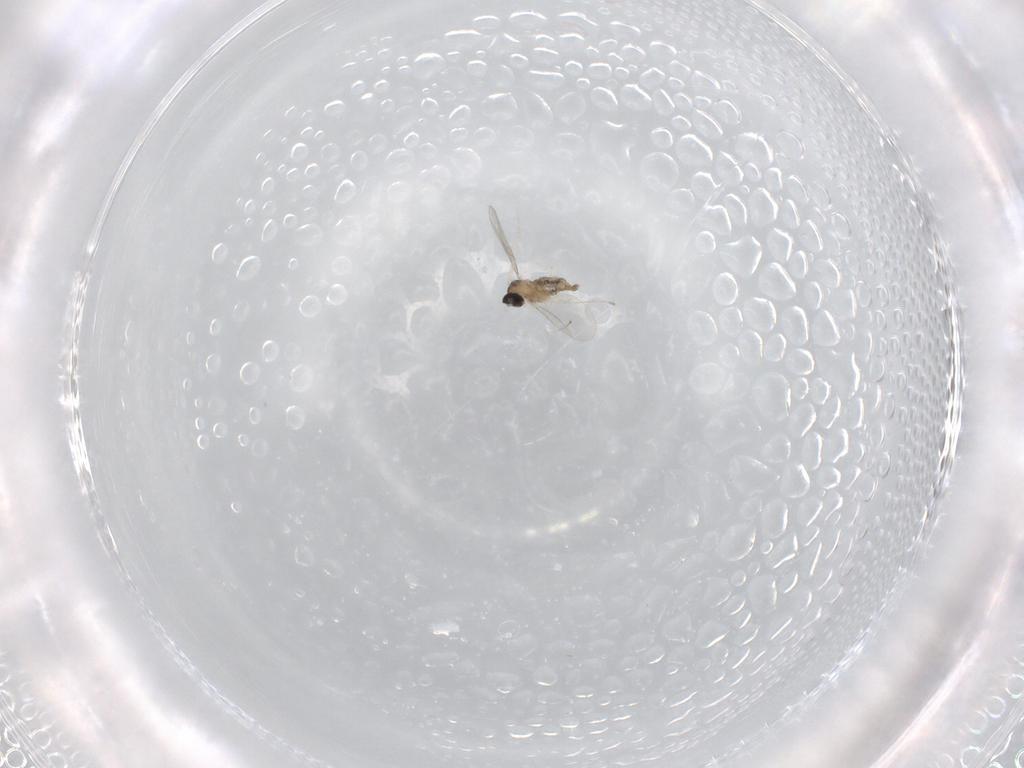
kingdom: Animalia
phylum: Arthropoda
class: Insecta
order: Diptera
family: Cecidomyiidae
